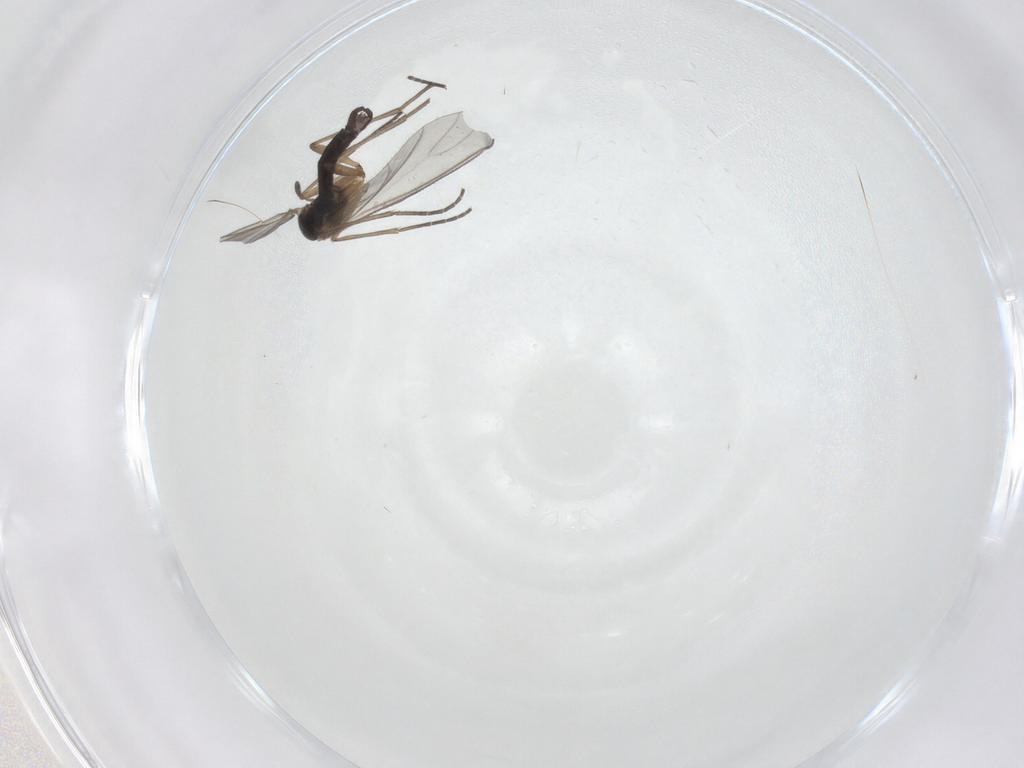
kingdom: Animalia
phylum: Arthropoda
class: Insecta
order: Diptera
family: Sciaridae
